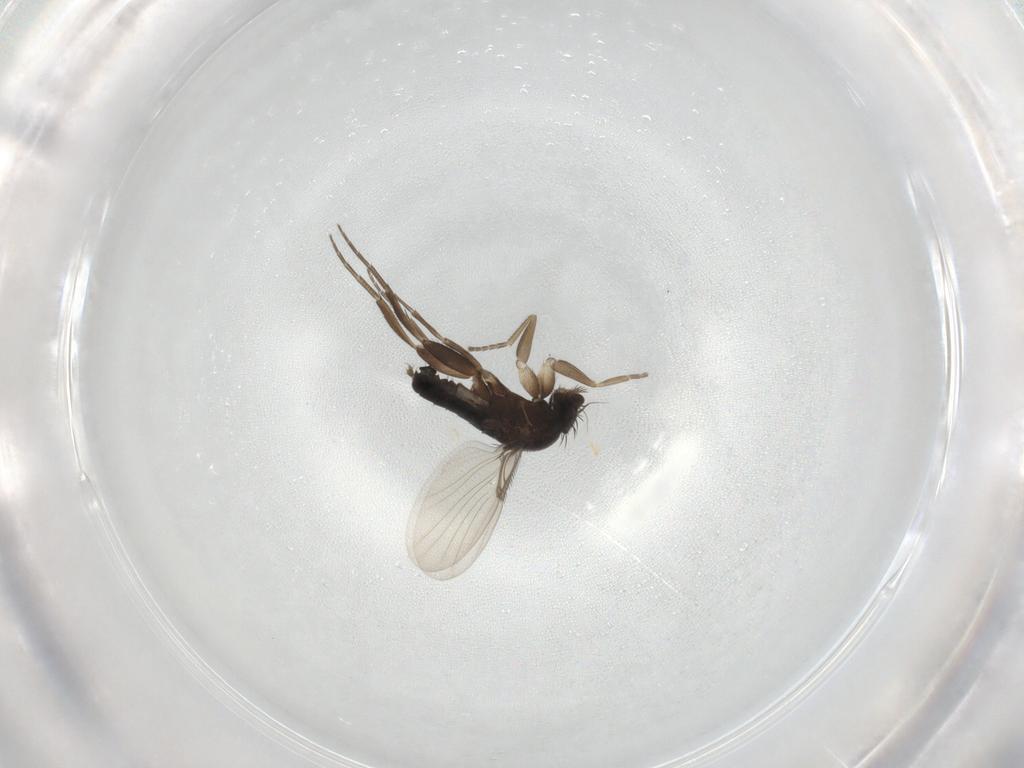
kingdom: Animalia
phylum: Arthropoda
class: Insecta
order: Diptera
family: Phoridae
